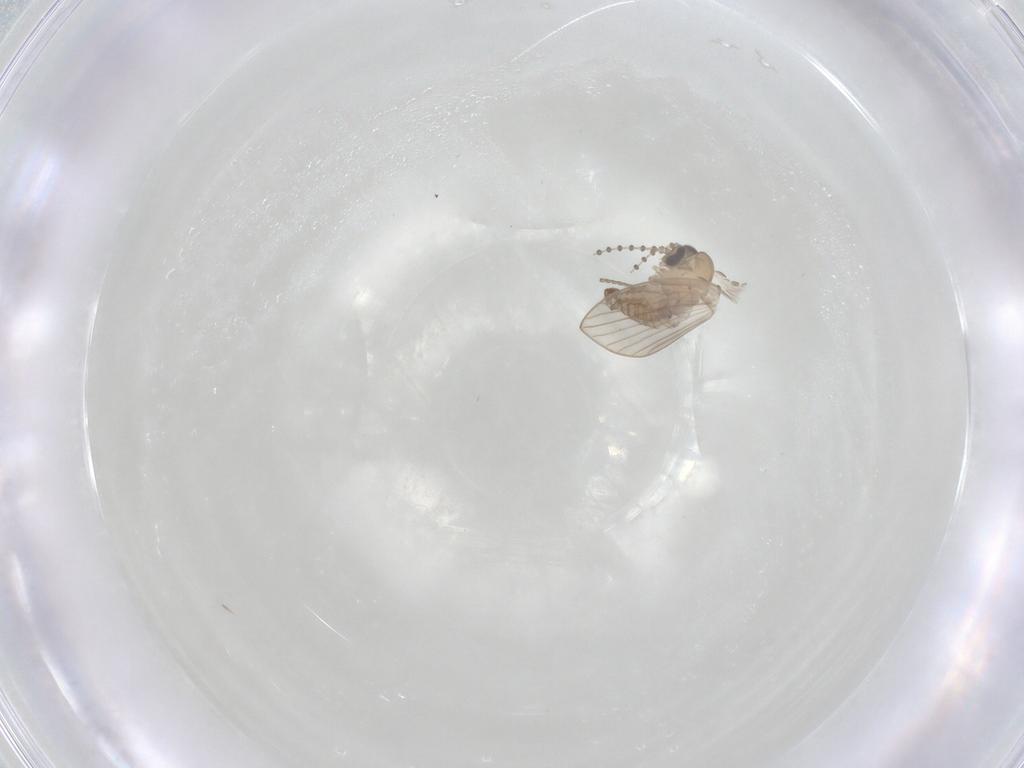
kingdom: Animalia
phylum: Arthropoda
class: Insecta
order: Diptera
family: Psychodidae
